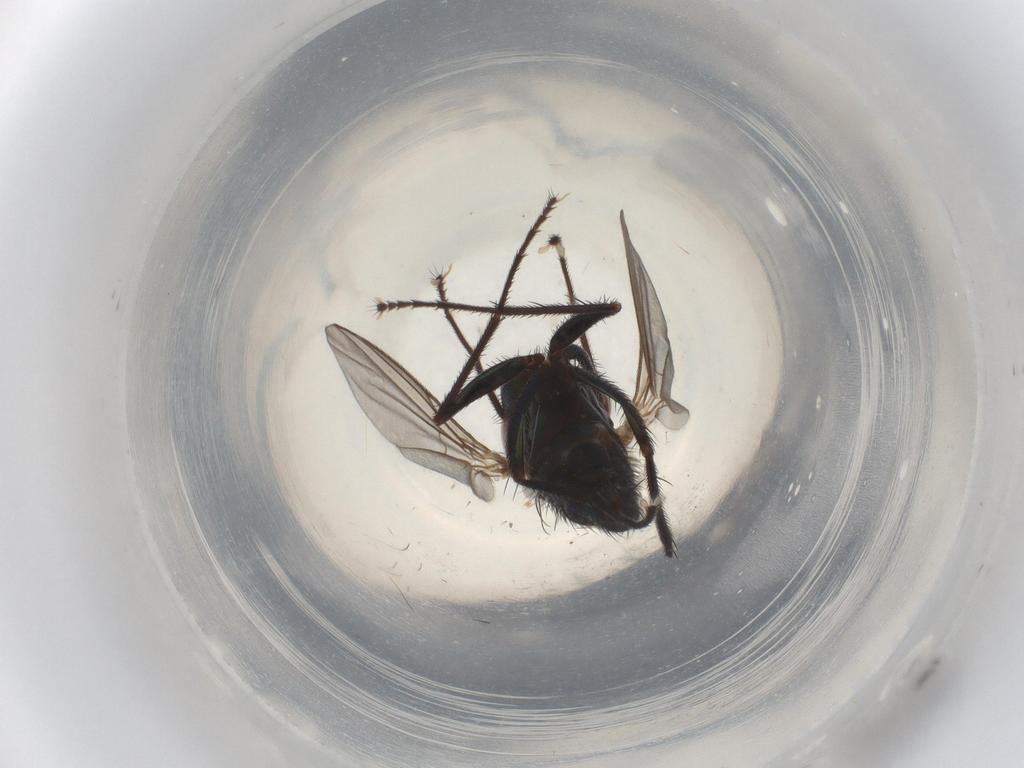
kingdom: Animalia
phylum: Arthropoda
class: Insecta
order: Diptera
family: Dolichopodidae
